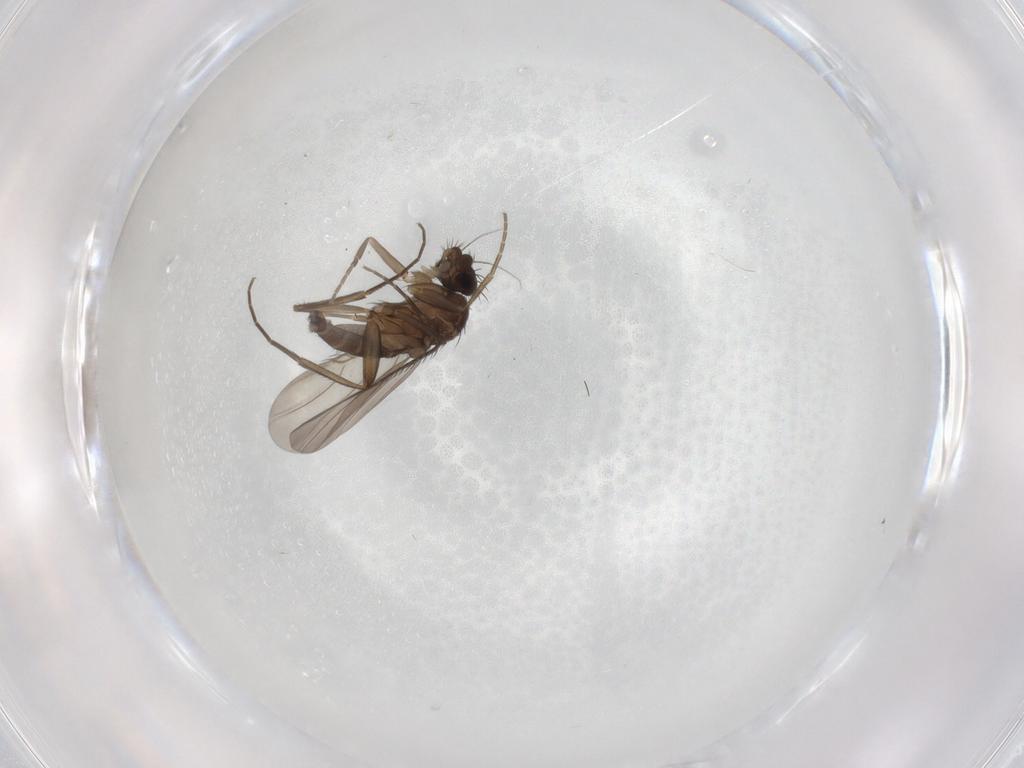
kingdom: Animalia
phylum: Arthropoda
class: Insecta
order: Diptera
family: Phoridae
